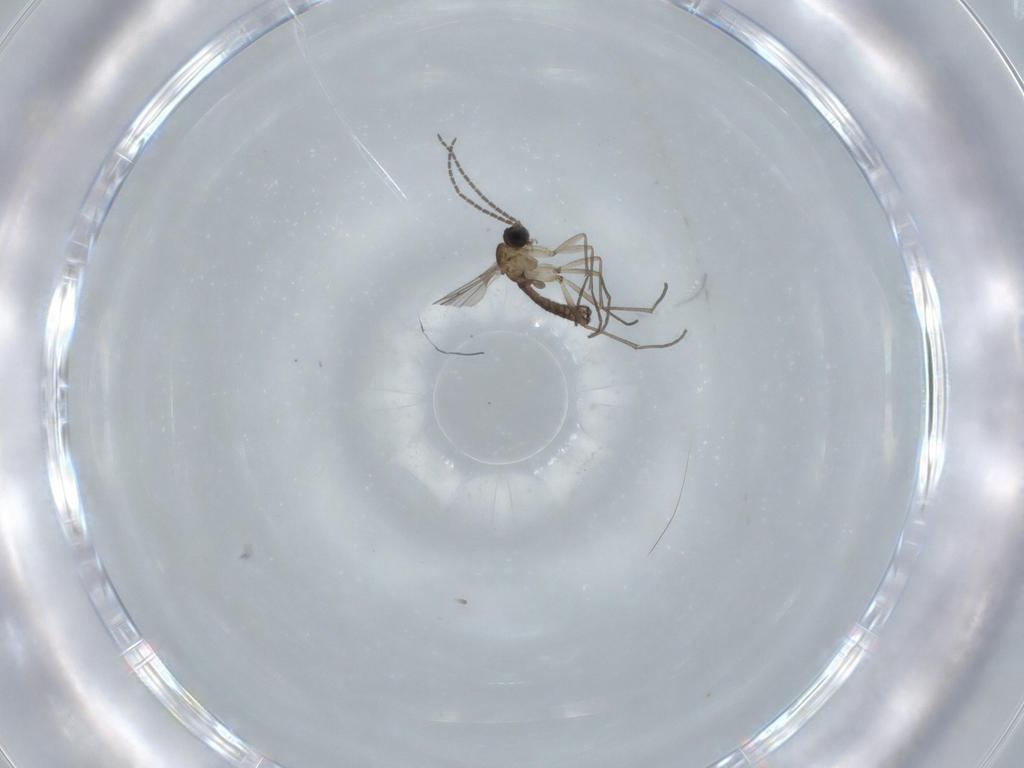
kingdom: Animalia
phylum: Arthropoda
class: Insecta
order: Diptera
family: Sciaridae
